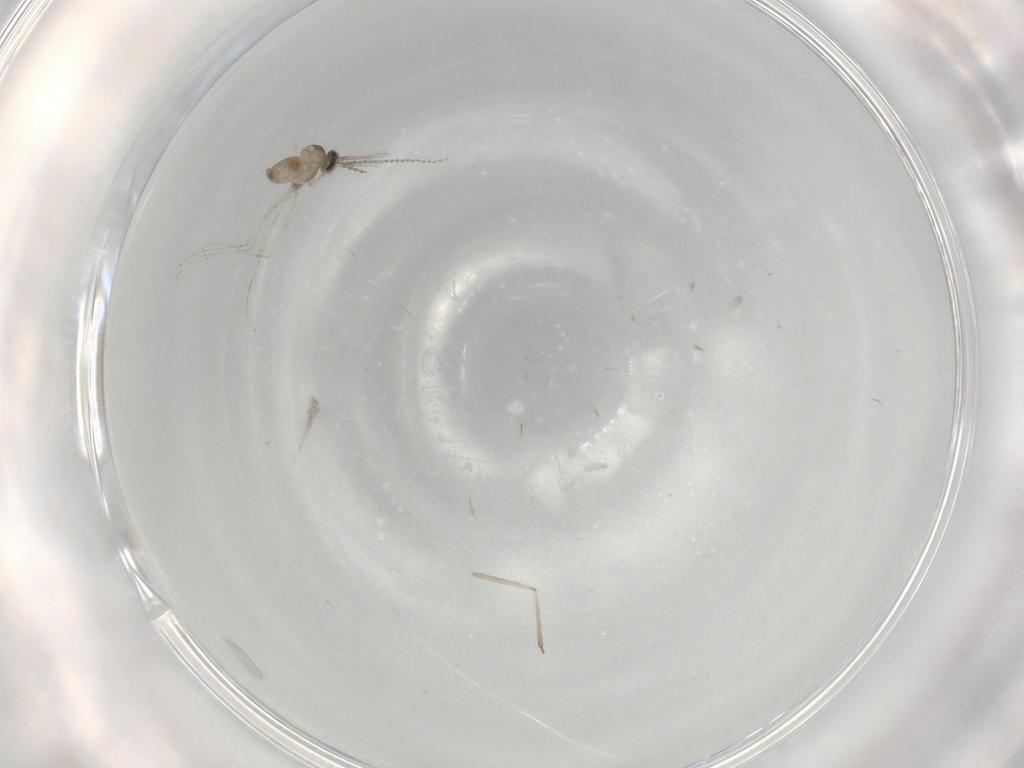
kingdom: Animalia
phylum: Arthropoda
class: Insecta
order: Diptera
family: Cecidomyiidae
